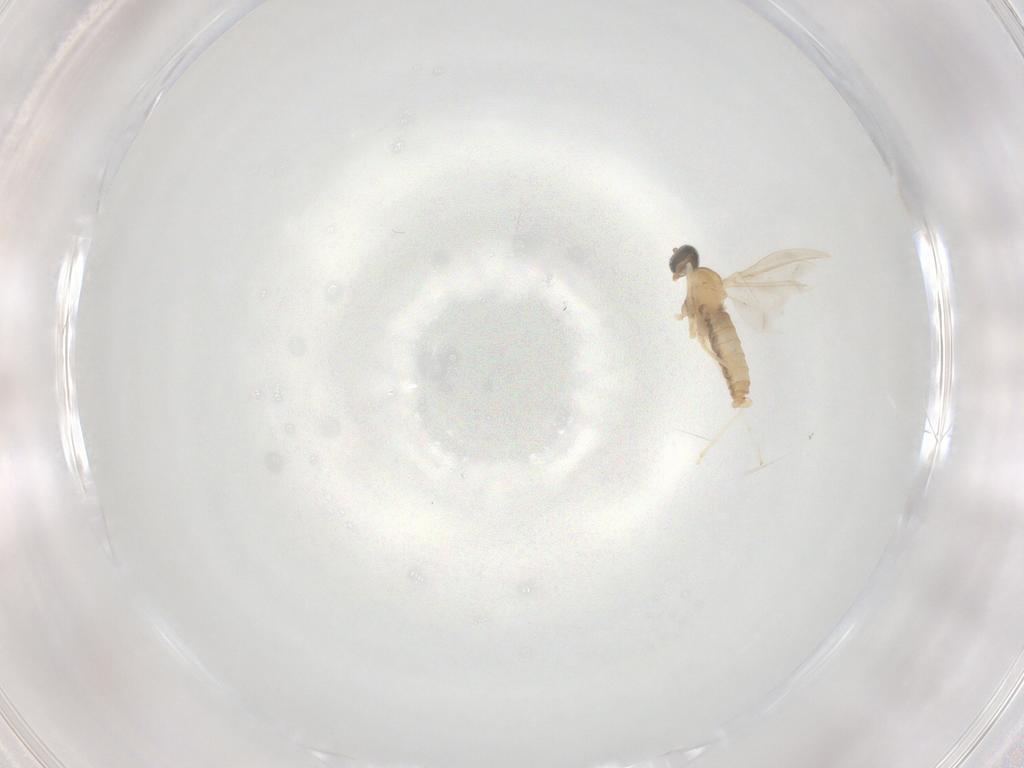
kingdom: Animalia
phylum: Arthropoda
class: Insecta
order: Diptera
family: Cecidomyiidae
